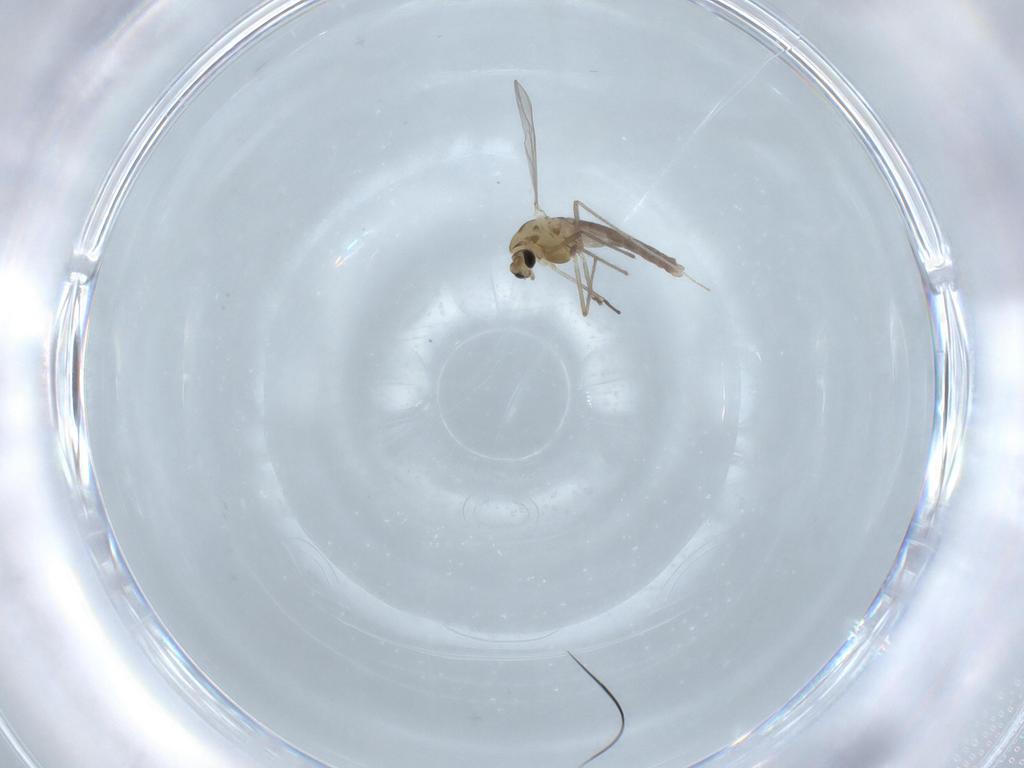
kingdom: Animalia
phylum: Arthropoda
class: Insecta
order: Diptera
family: Chironomidae
